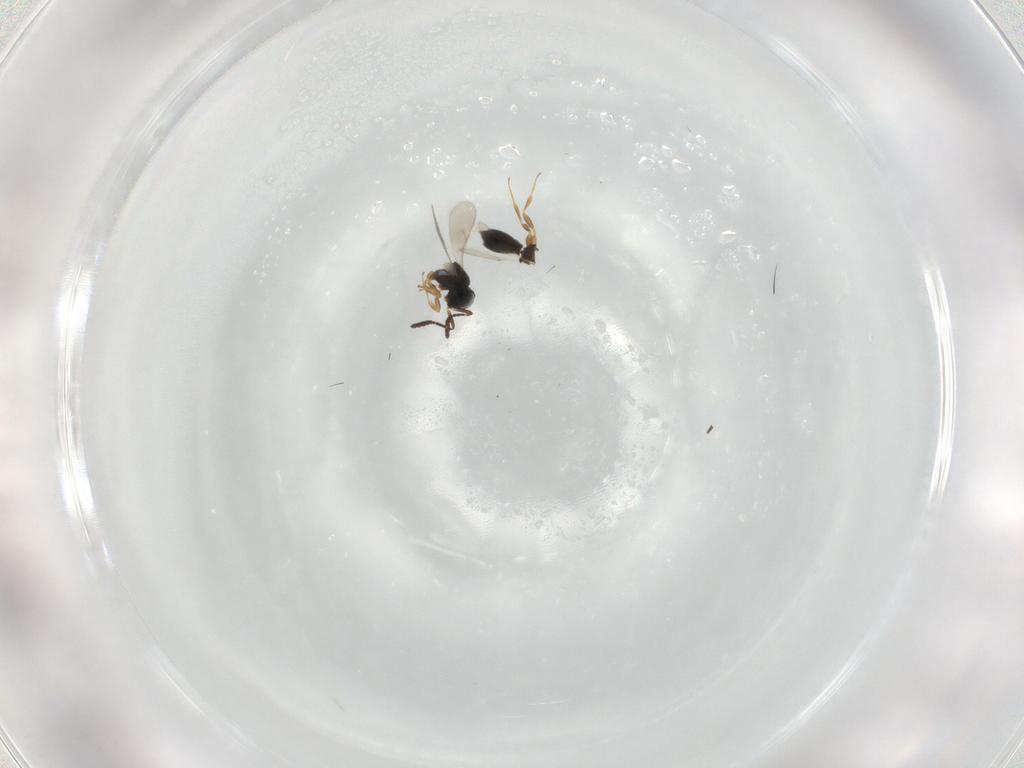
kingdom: Animalia
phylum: Arthropoda
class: Insecta
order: Hymenoptera
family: Scelionidae
